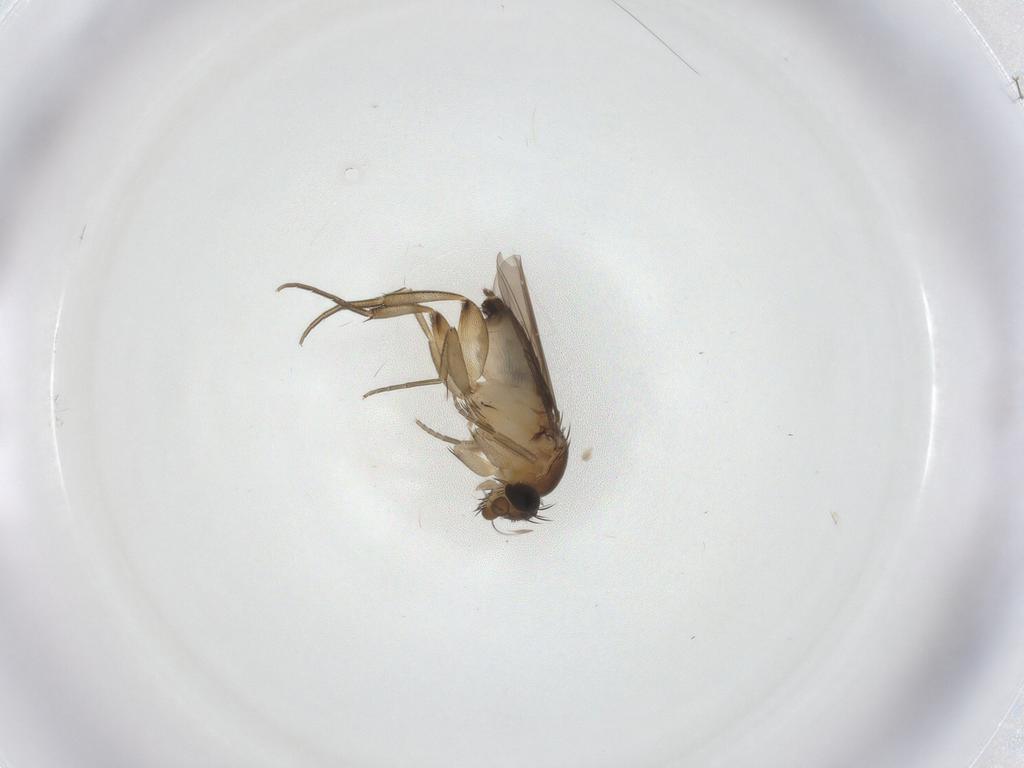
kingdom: Animalia
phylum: Arthropoda
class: Insecta
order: Diptera
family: Phoridae
